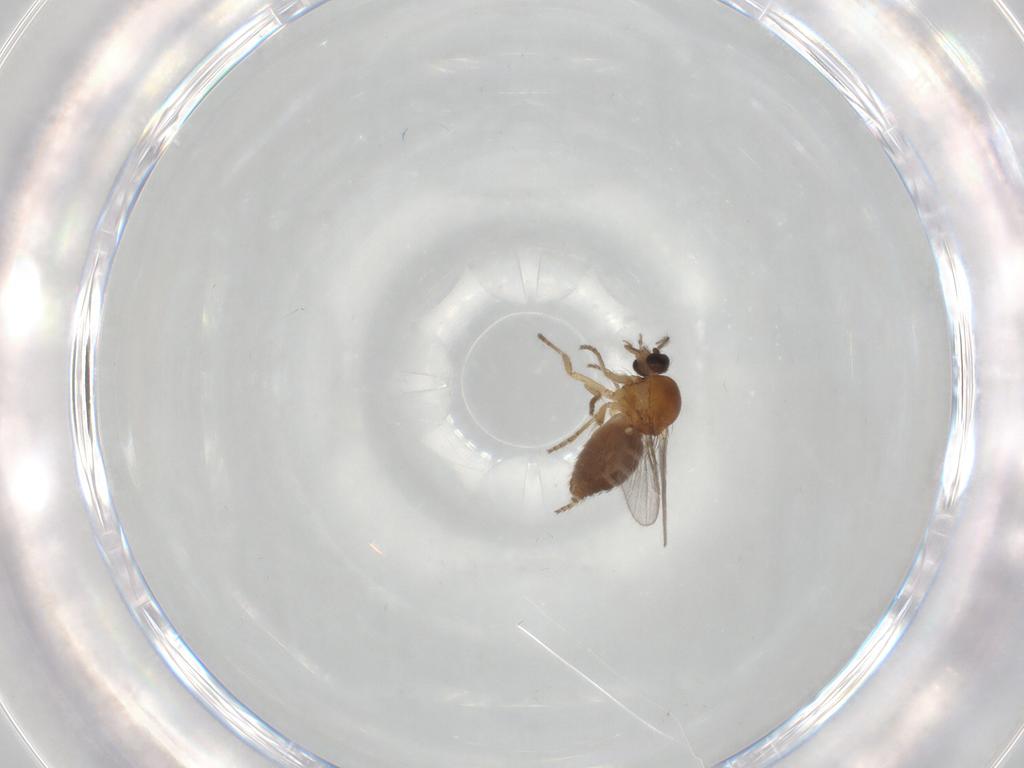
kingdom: Animalia
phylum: Arthropoda
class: Insecta
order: Diptera
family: Ceratopogonidae
